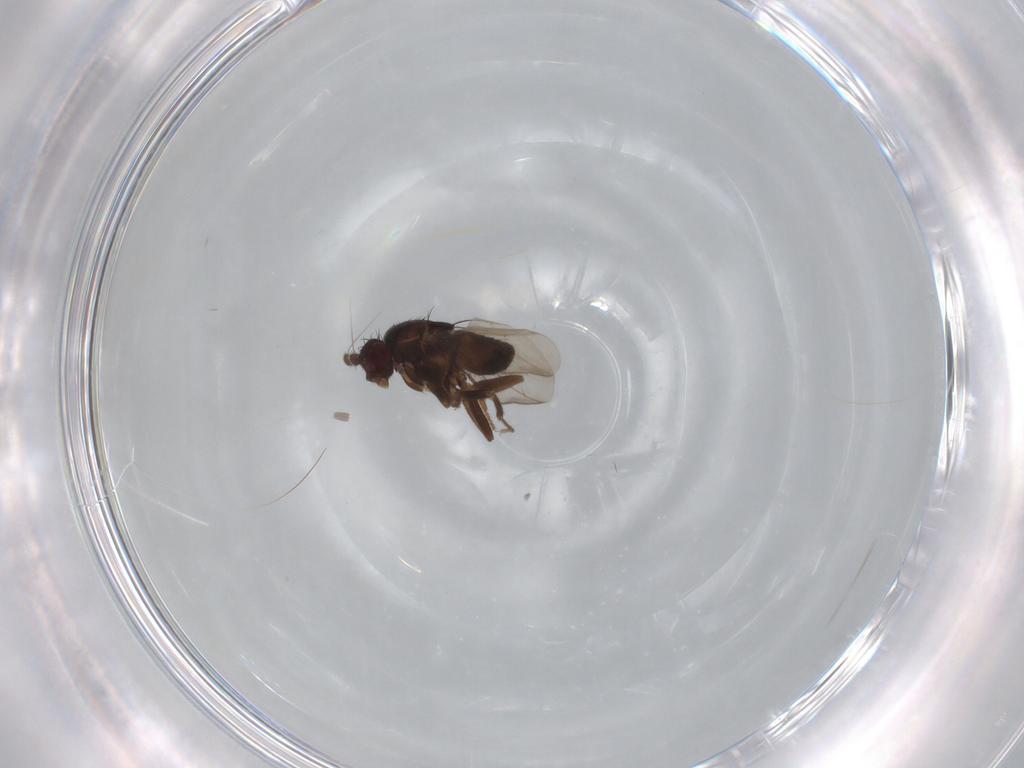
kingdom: Animalia
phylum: Arthropoda
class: Insecta
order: Diptera
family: Sphaeroceridae
